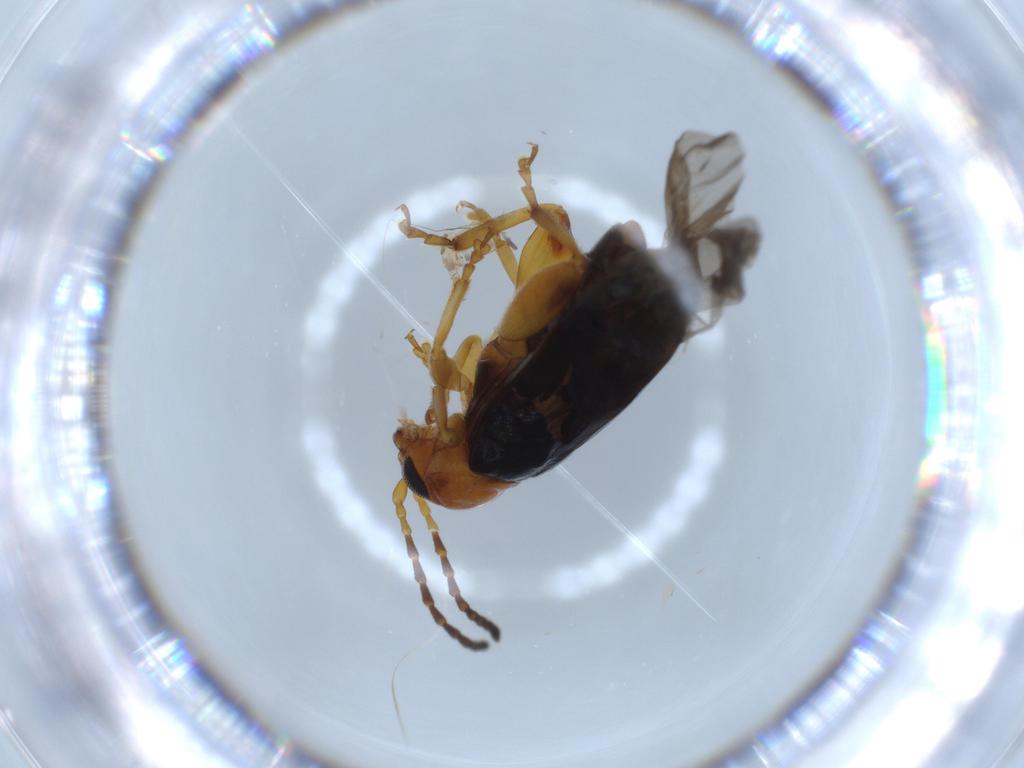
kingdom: Animalia
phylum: Arthropoda
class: Insecta
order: Coleoptera
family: Chrysomelidae
